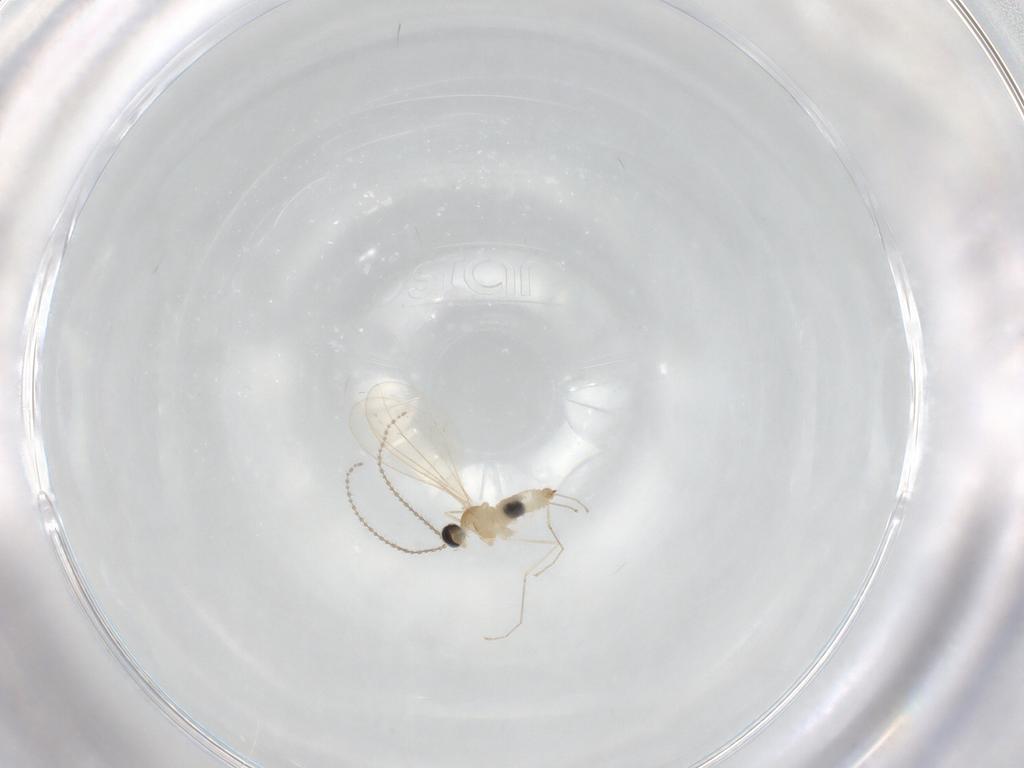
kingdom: Animalia
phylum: Arthropoda
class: Insecta
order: Diptera
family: Cecidomyiidae
